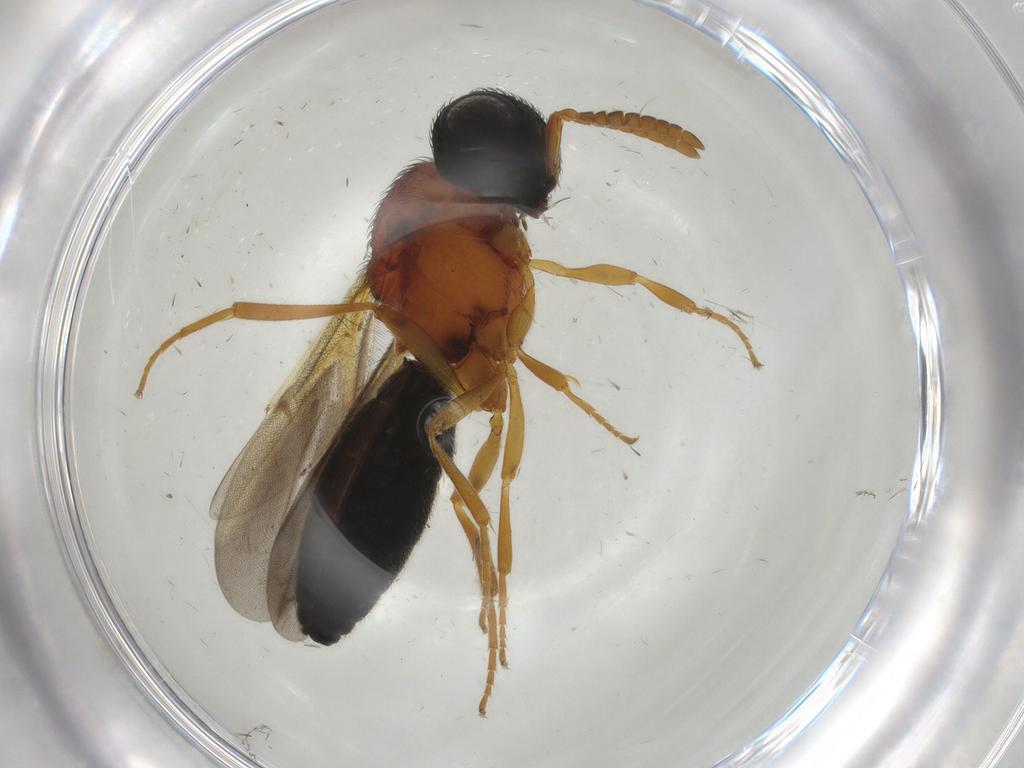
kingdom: Animalia
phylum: Arthropoda
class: Insecta
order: Hymenoptera
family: Scelionidae
